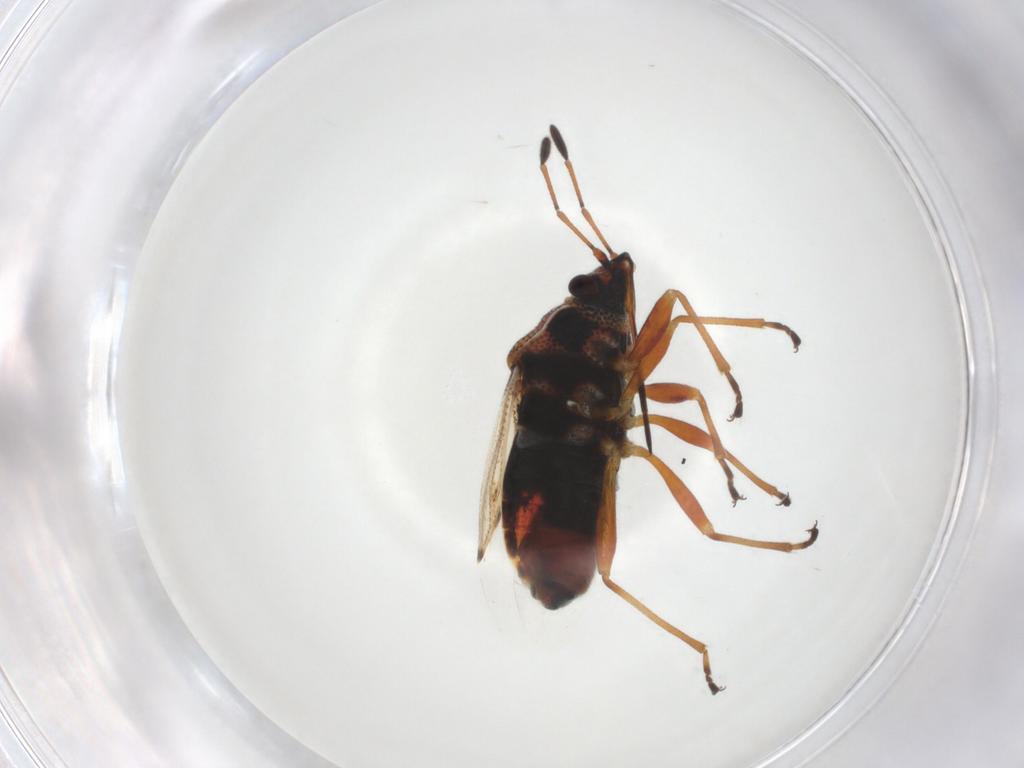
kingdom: Animalia
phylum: Arthropoda
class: Insecta
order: Hemiptera
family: Lygaeidae
